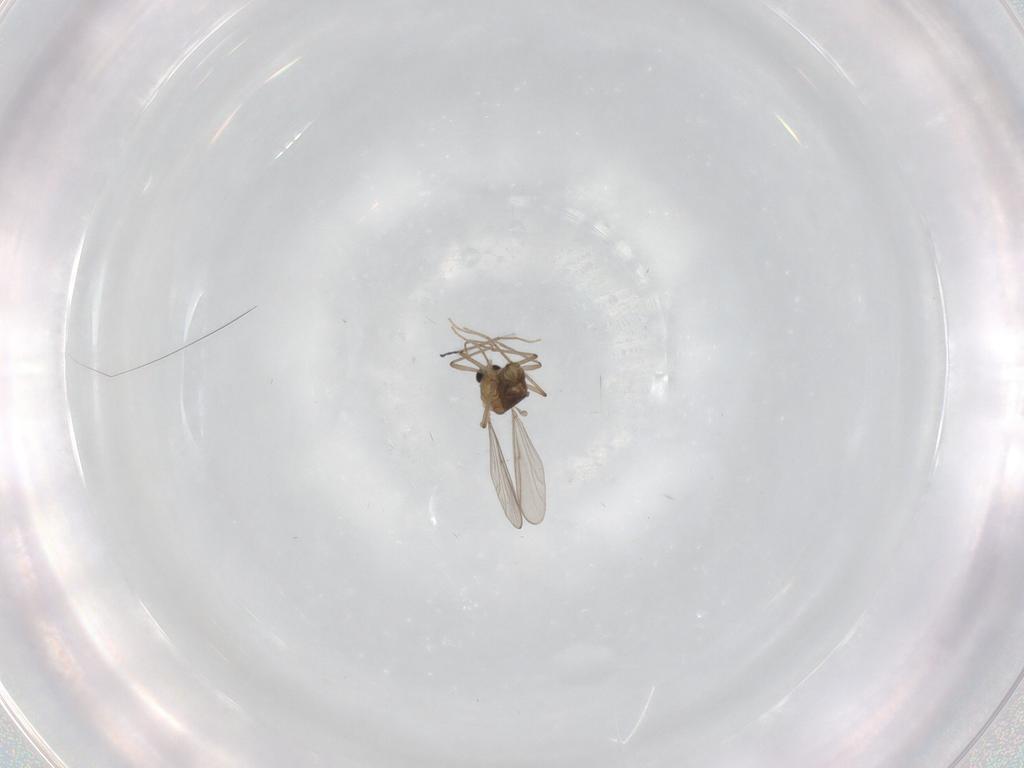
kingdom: Animalia
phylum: Arthropoda
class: Insecta
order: Diptera
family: Chironomidae
